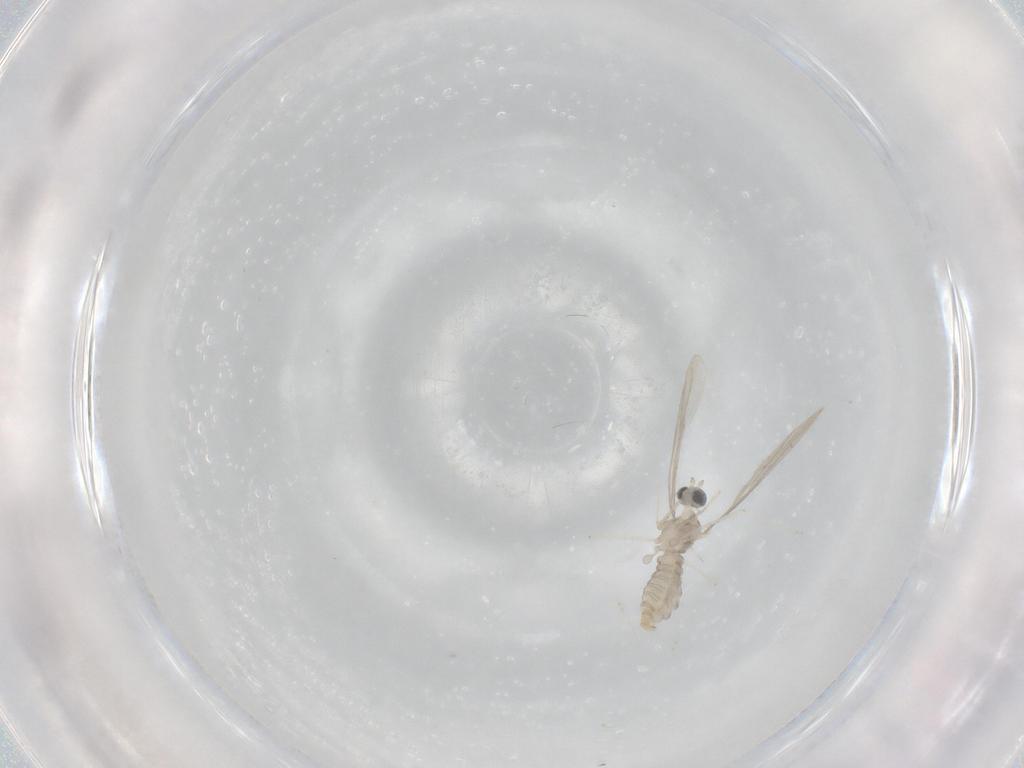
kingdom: Animalia
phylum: Arthropoda
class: Insecta
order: Diptera
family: Cecidomyiidae
